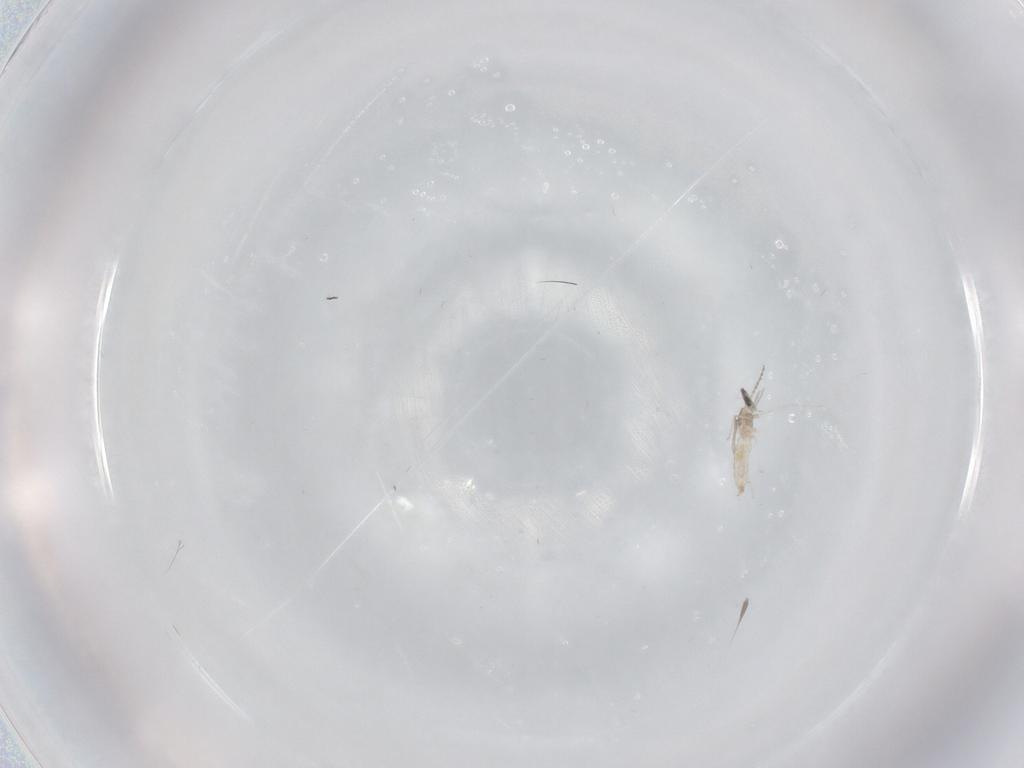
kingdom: Animalia
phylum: Arthropoda
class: Insecta
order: Diptera
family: Cecidomyiidae
